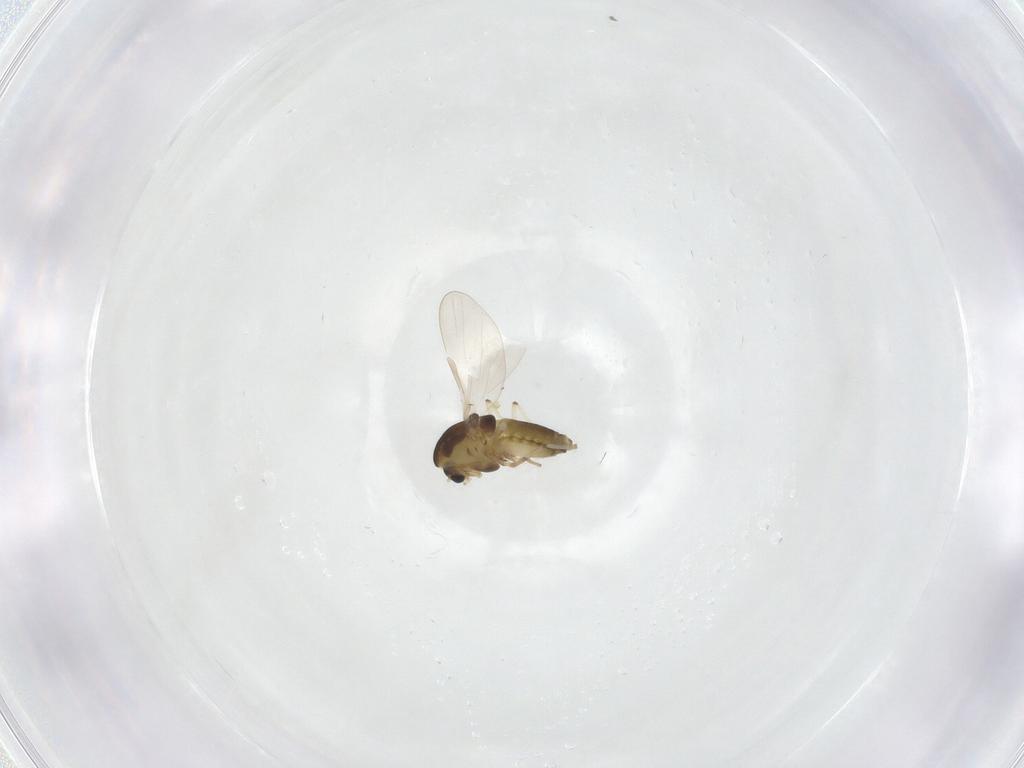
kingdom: Animalia
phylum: Arthropoda
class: Insecta
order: Diptera
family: Chironomidae
